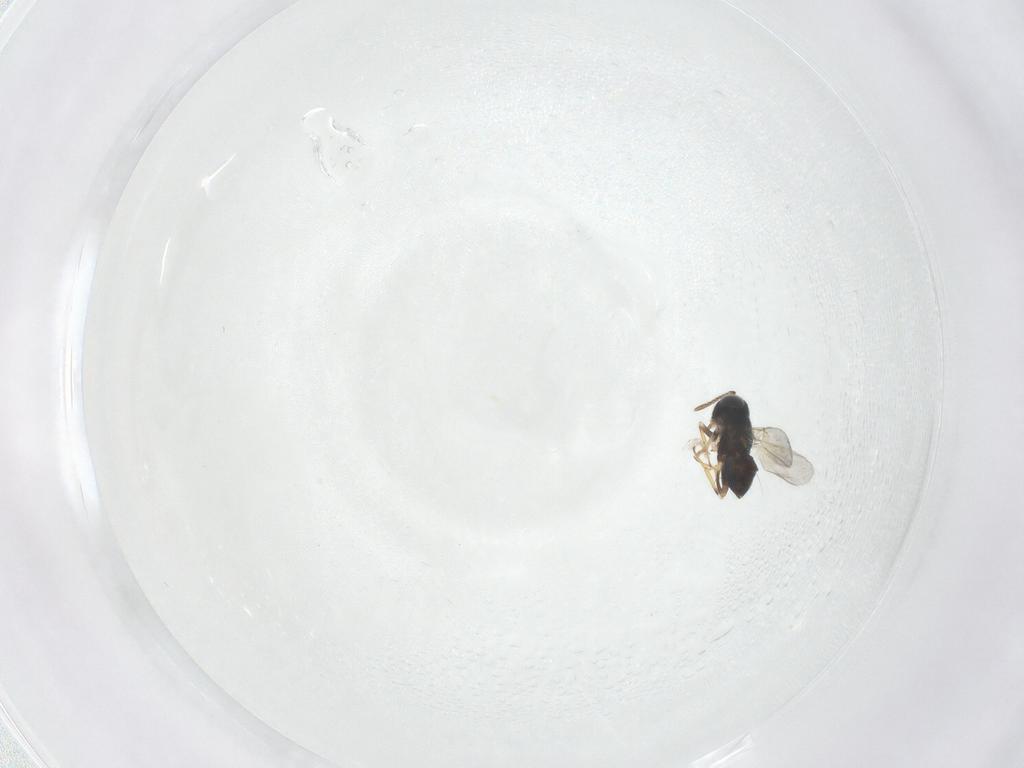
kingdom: Animalia
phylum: Arthropoda
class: Insecta
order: Hymenoptera
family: Formicidae
